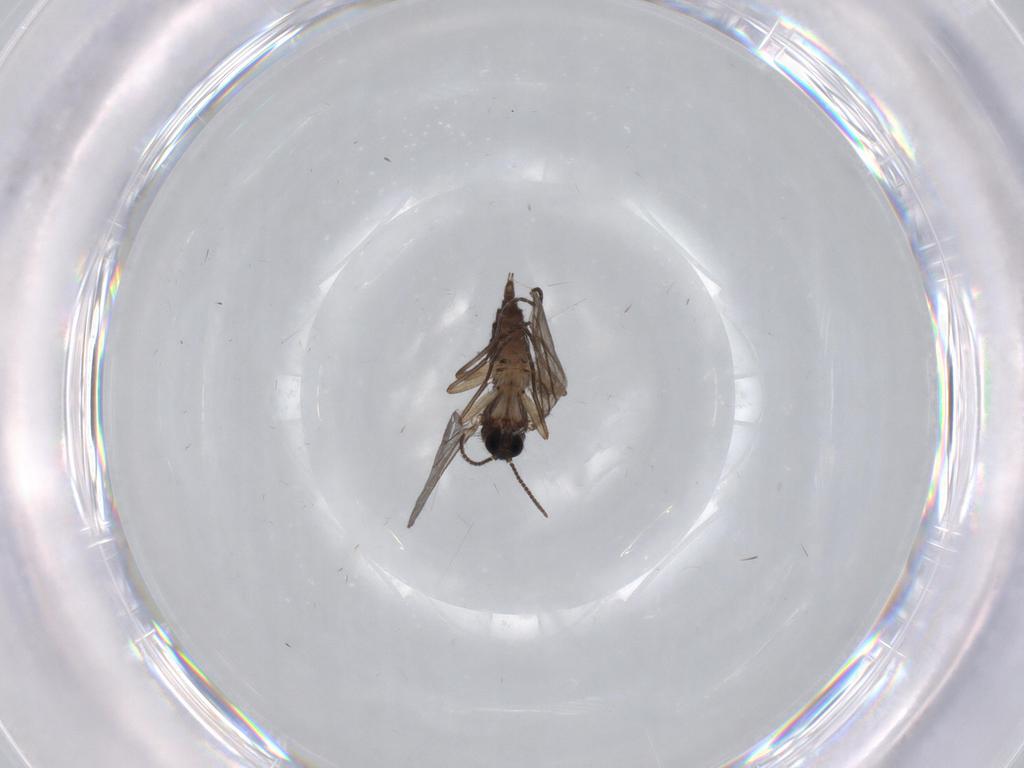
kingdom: Animalia
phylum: Arthropoda
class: Insecta
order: Diptera
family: Sciaridae
